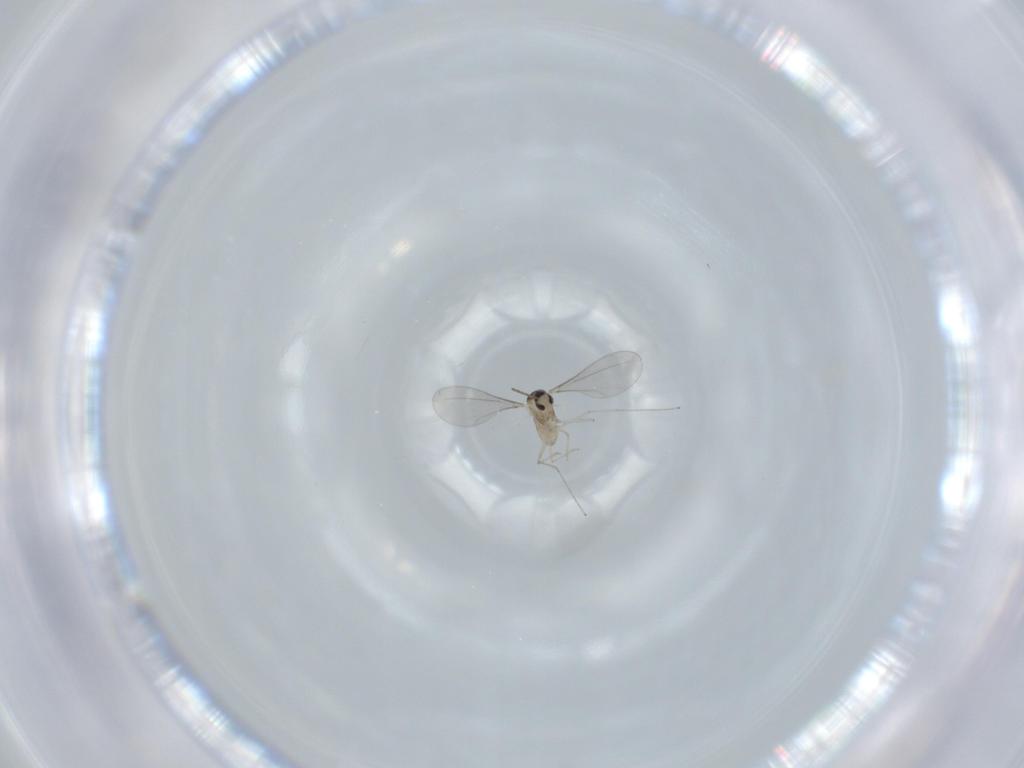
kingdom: Animalia
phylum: Arthropoda
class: Insecta
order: Diptera
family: Cecidomyiidae
